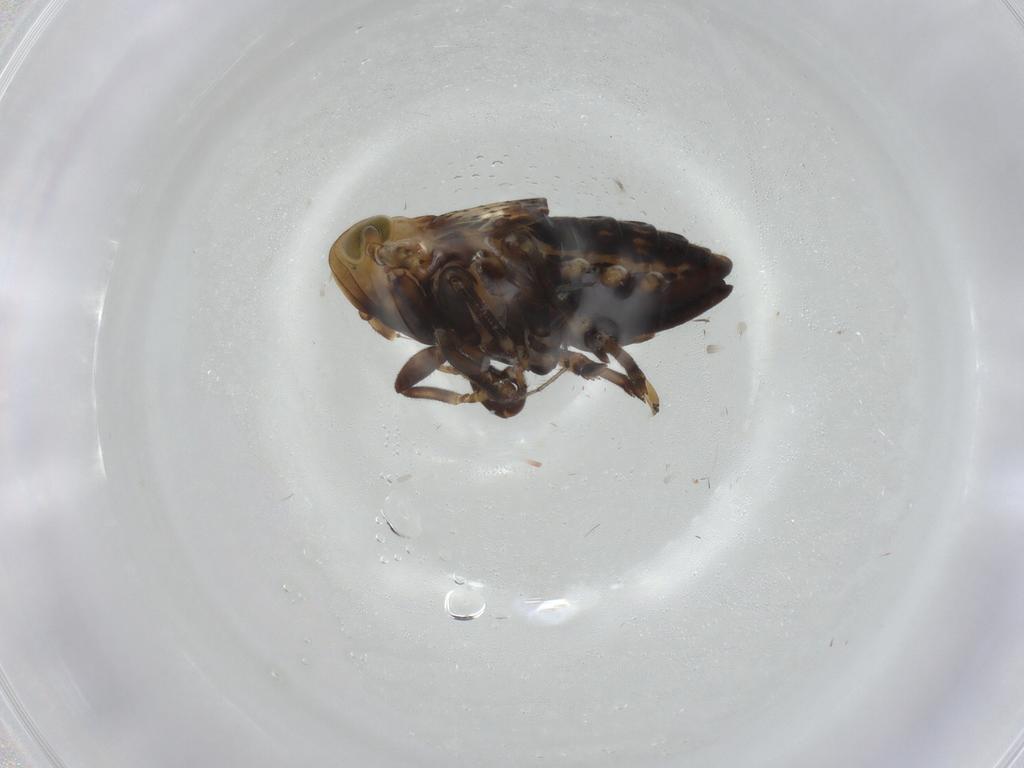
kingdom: Animalia
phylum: Arthropoda
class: Insecta
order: Hemiptera
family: Delphacidae
